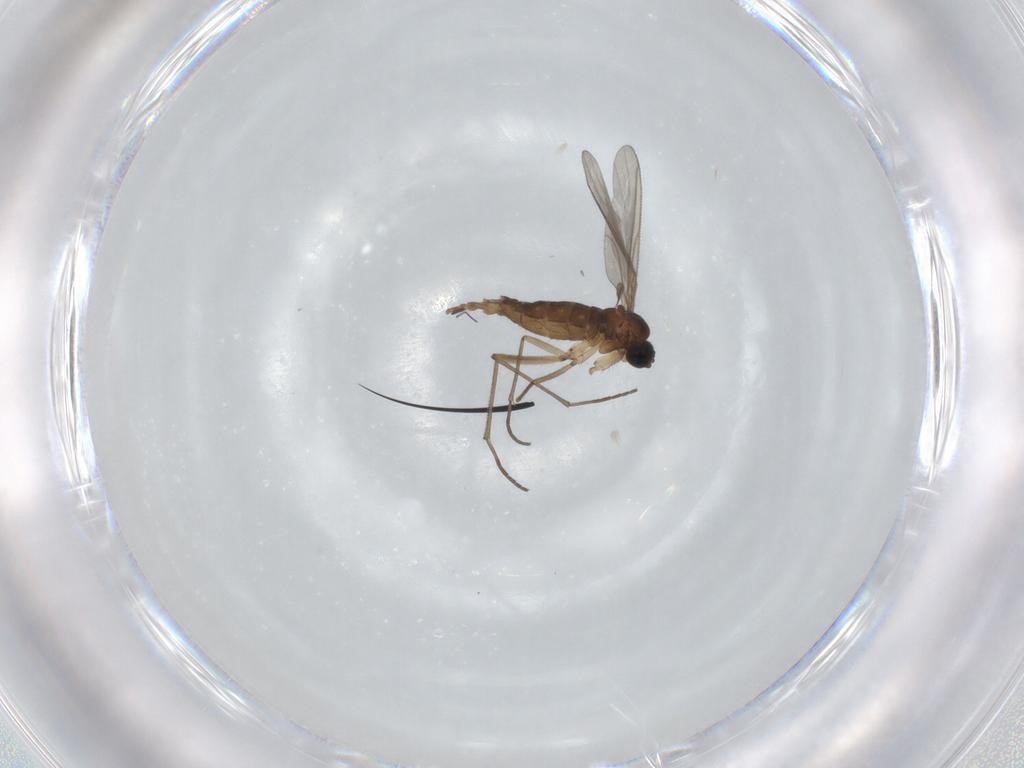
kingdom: Animalia
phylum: Arthropoda
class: Insecta
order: Diptera
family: Sciaridae
